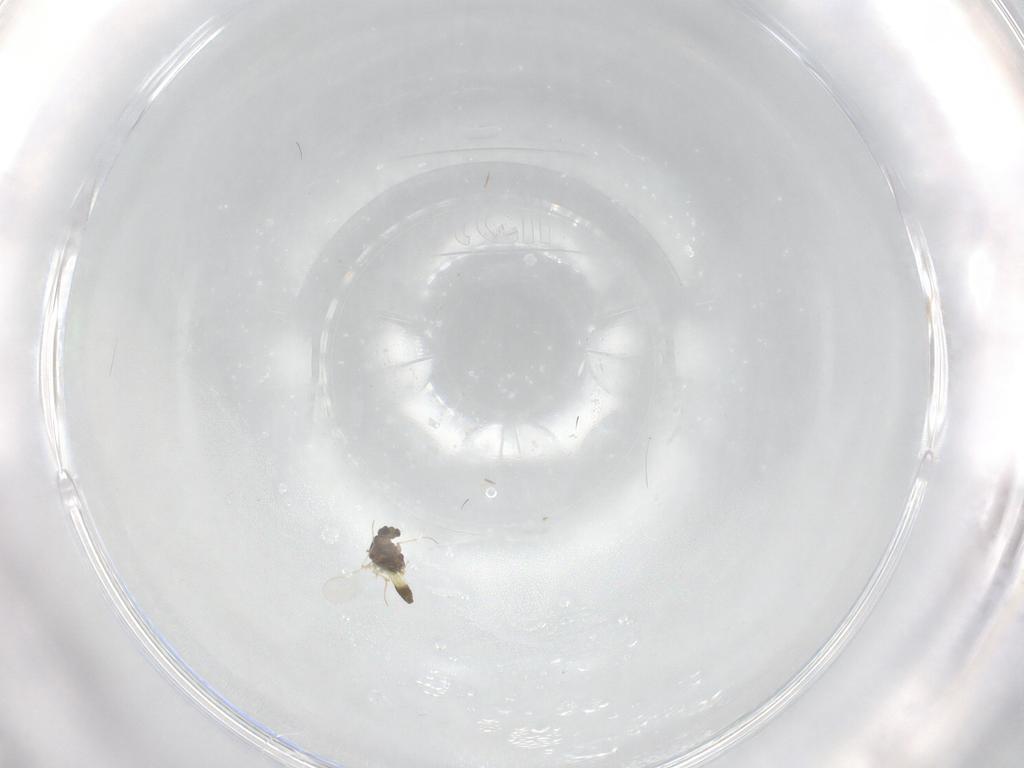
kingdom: Animalia
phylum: Arthropoda
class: Insecta
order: Diptera
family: Chironomidae
